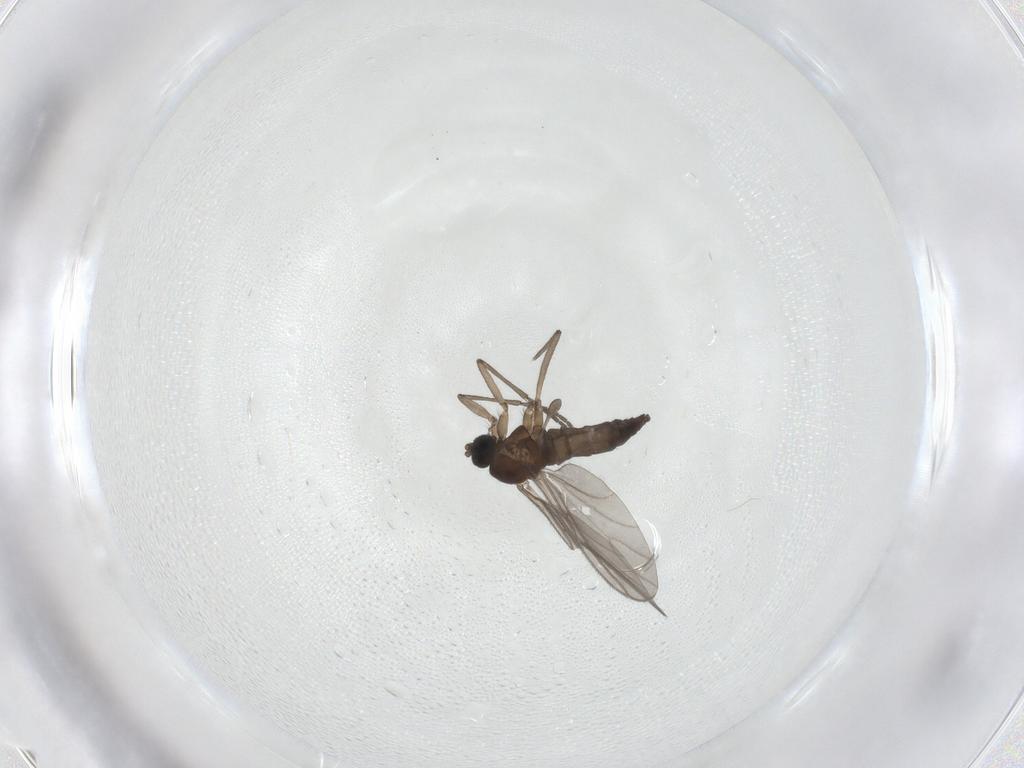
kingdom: Animalia
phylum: Arthropoda
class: Insecta
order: Diptera
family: Sciaridae
